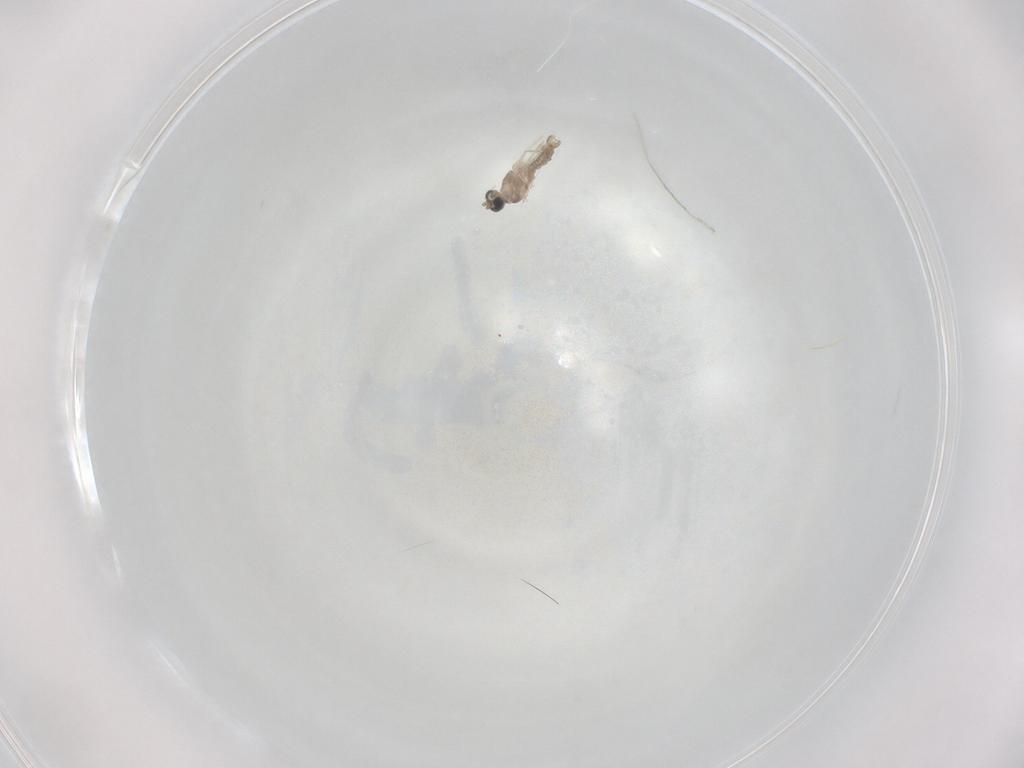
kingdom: Animalia
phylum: Arthropoda
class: Insecta
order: Diptera
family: Cecidomyiidae
